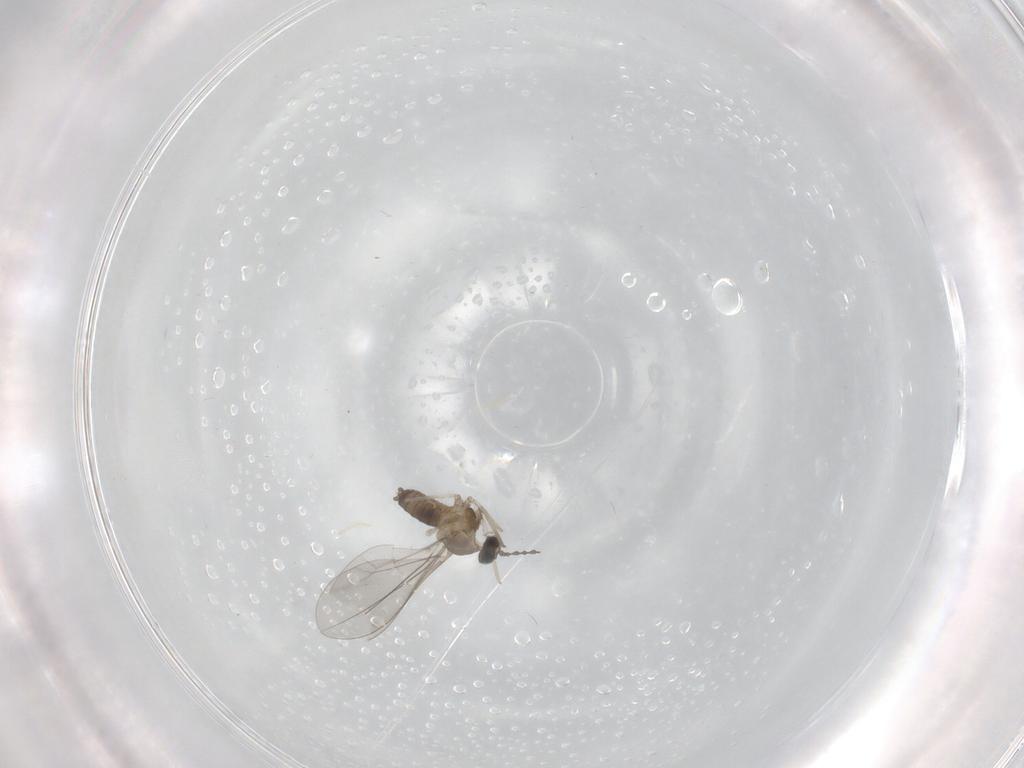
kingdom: Animalia
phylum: Arthropoda
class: Insecta
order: Diptera
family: Cecidomyiidae
